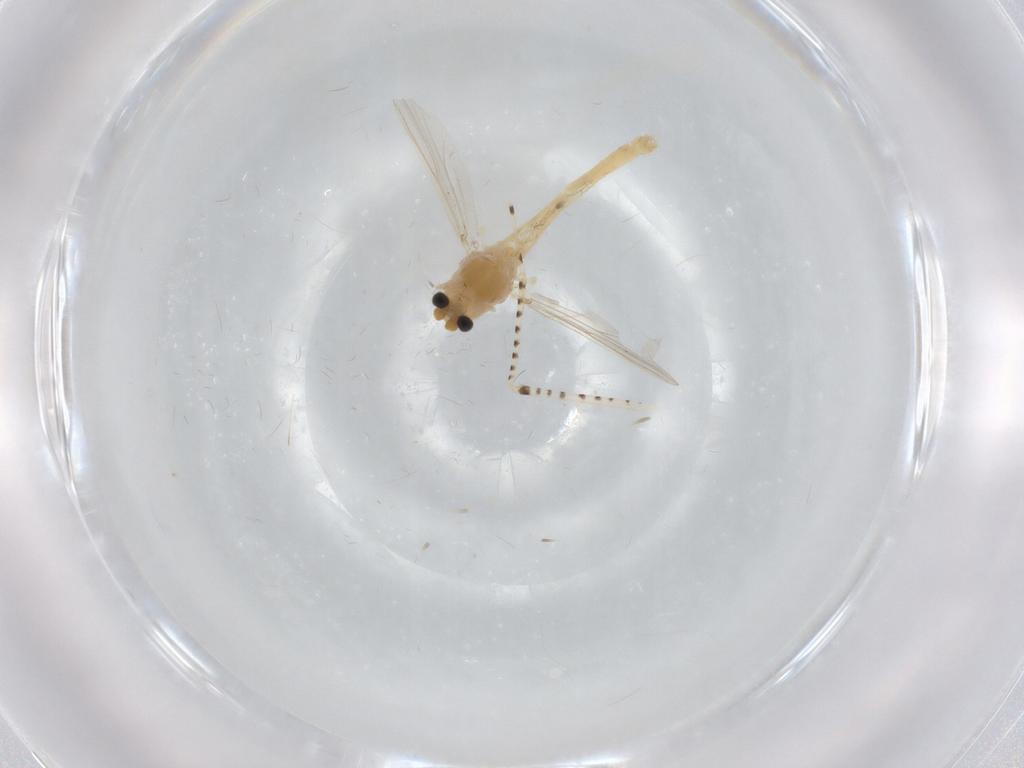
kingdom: Animalia
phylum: Arthropoda
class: Insecta
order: Diptera
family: Chironomidae
